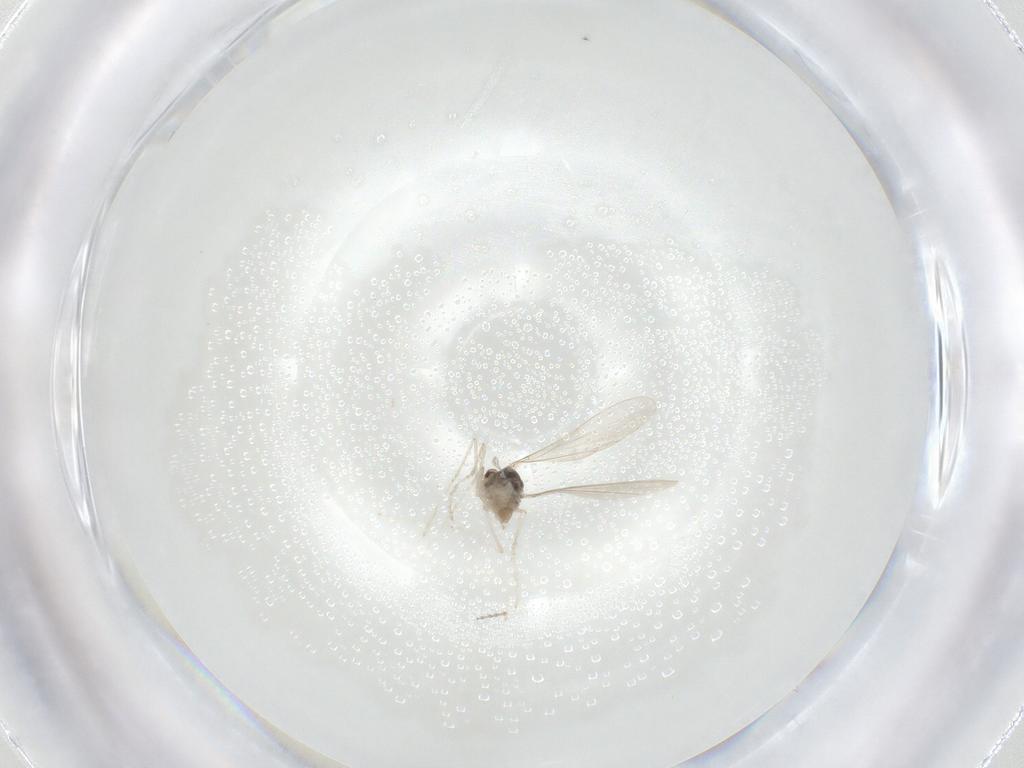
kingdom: Animalia
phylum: Arthropoda
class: Insecta
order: Diptera
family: Ceratopogonidae
